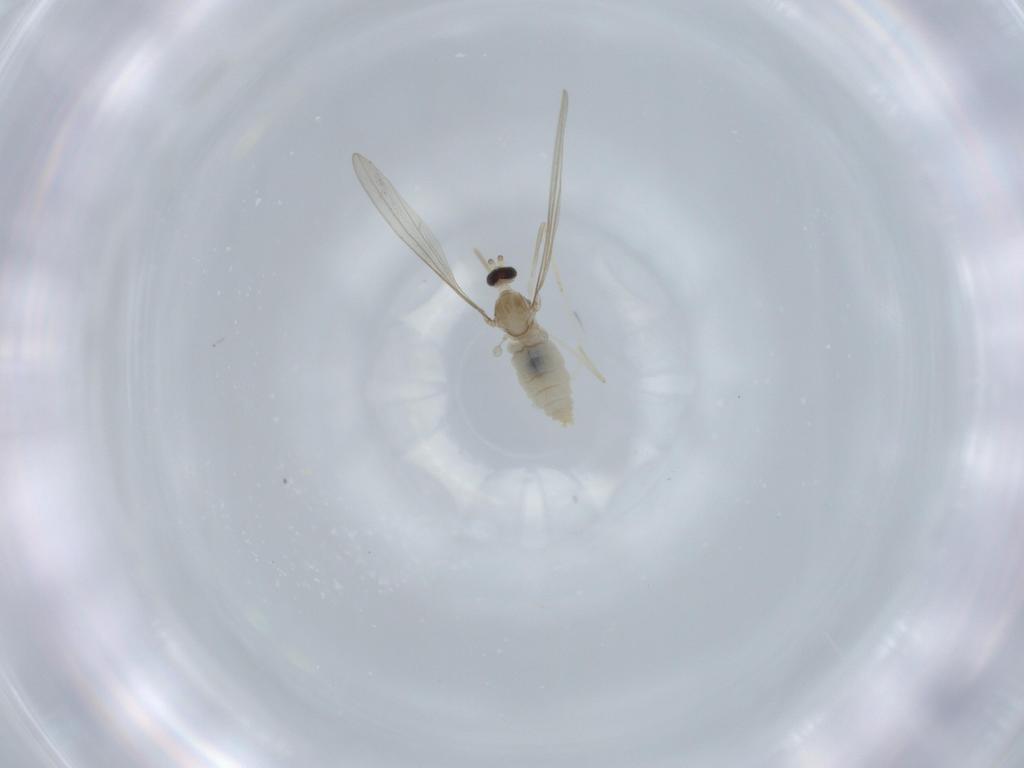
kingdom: Animalia
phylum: Arthropoda
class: Insecta
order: Diptera
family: Cecidomyiidae
